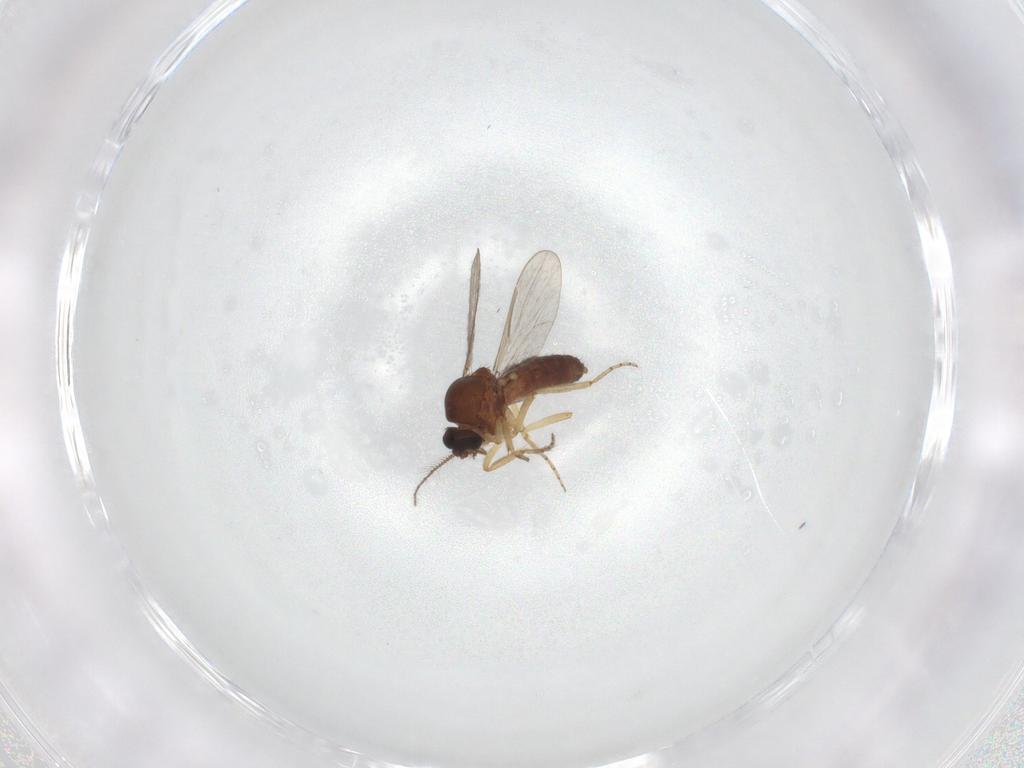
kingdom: Animalia
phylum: Arthropoda
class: Insecta
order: Diptera
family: Ceratopogonidae
